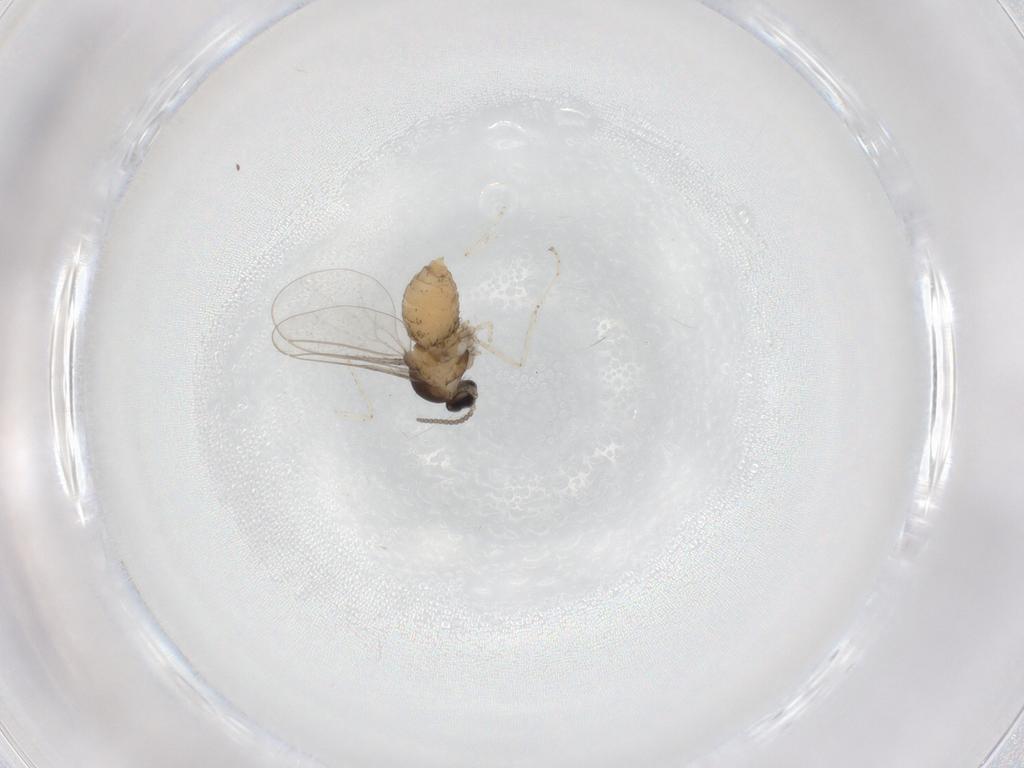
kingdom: Animalia
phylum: Arthropoda
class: Insecta
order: Diptera
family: Cecidomyiidae
